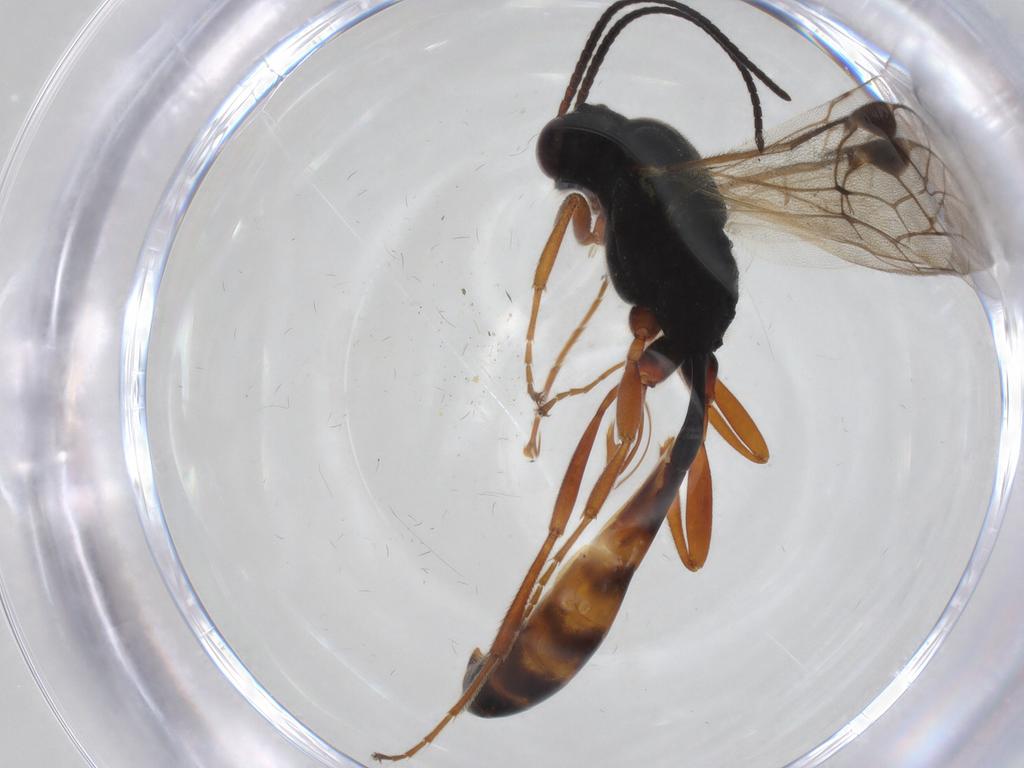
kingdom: Animalia
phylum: Arthropoda
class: Insecta
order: Hymenoptera
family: Ichneumonidae
